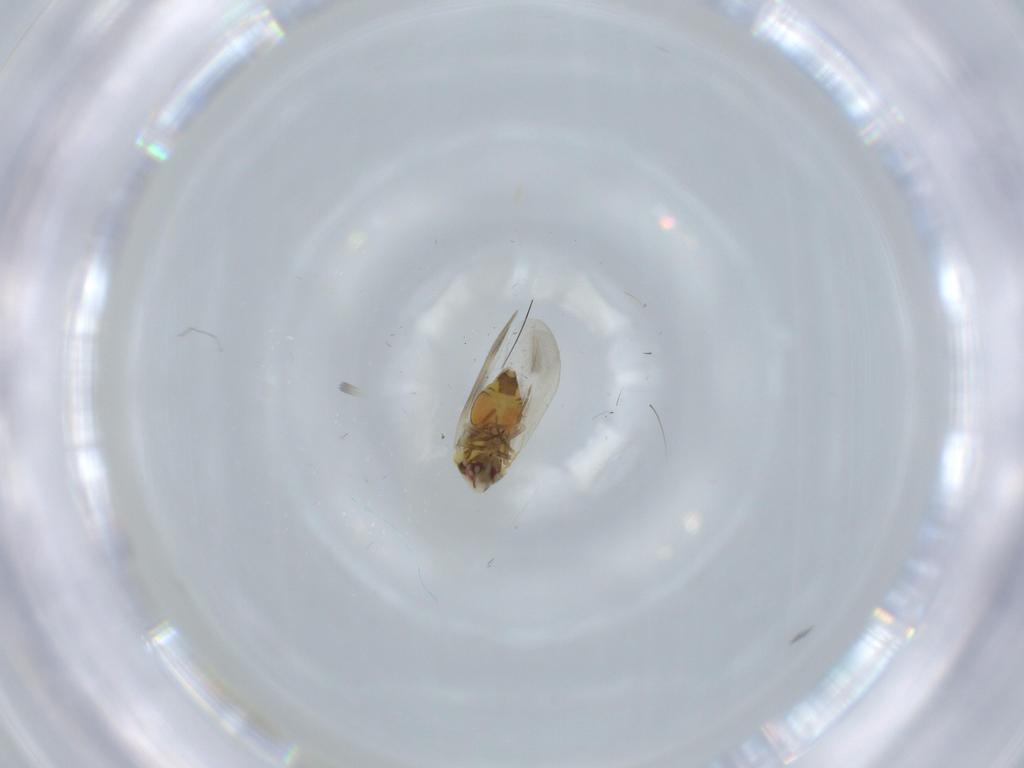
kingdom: Animalia
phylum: Arthropoda
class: Insecta
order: Hemiptera
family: Aleyrodidae
